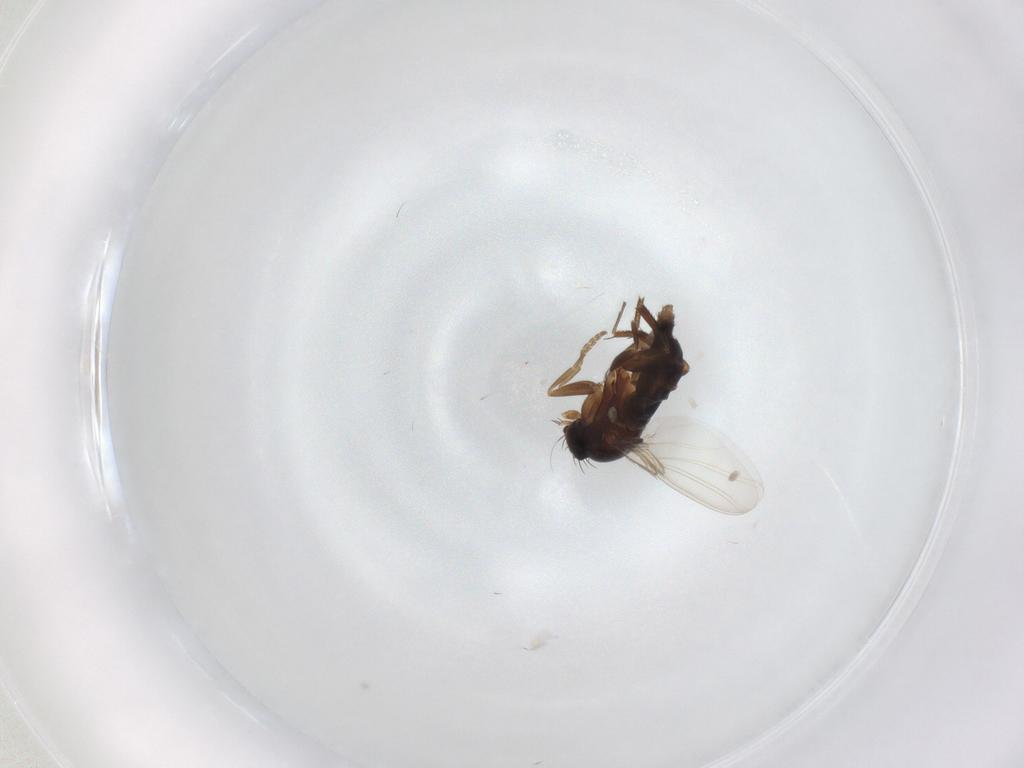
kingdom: Animalia
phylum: Arthropoda
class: Insecta
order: Diptera
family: Phoridae
